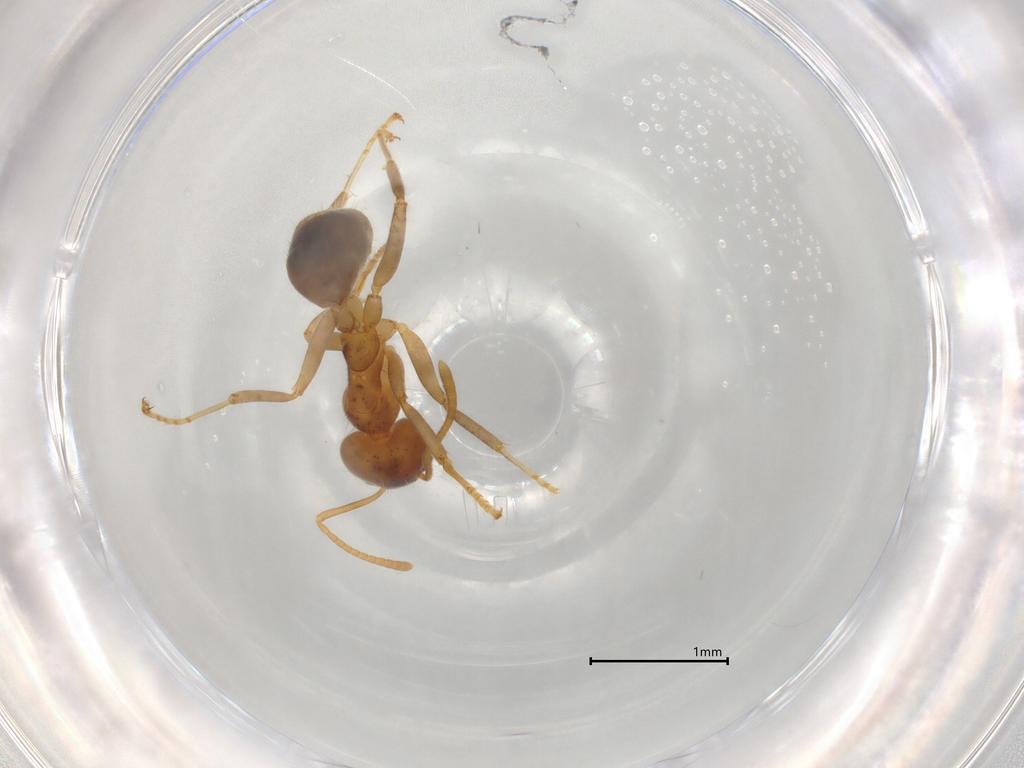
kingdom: Animalia
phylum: Arthropoda
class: Insecta
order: Hymenoptera
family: Formicidae
